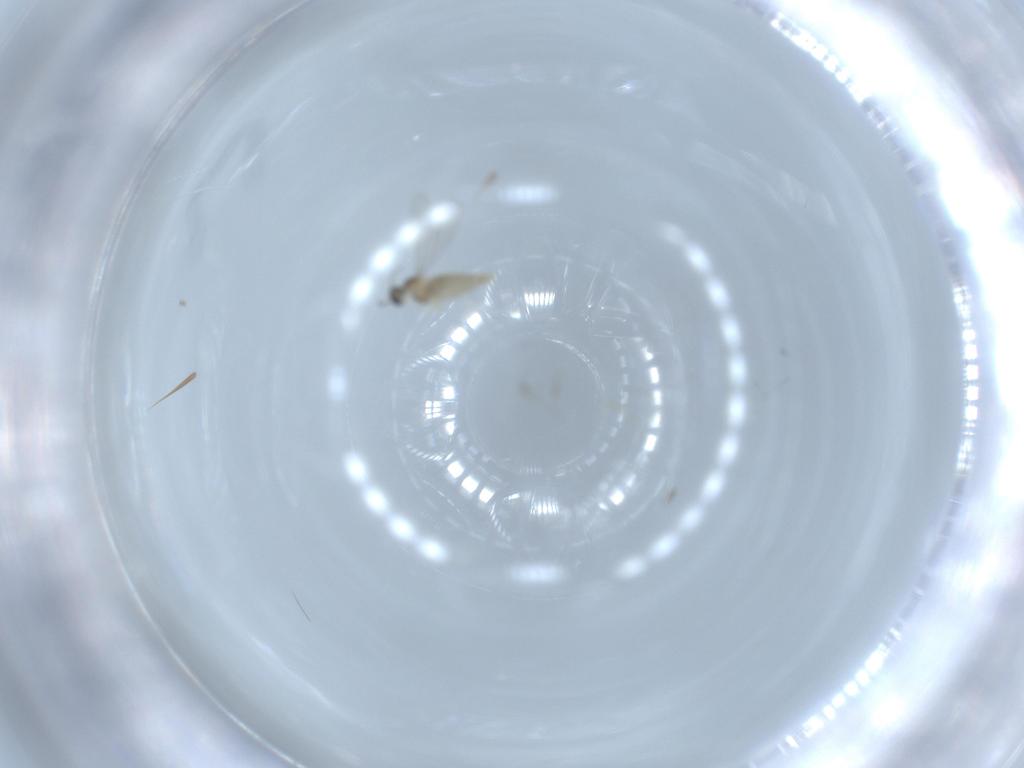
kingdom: Animalia
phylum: Arthropoda
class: Insecta
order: Diptera
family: Cecidomyiidae
